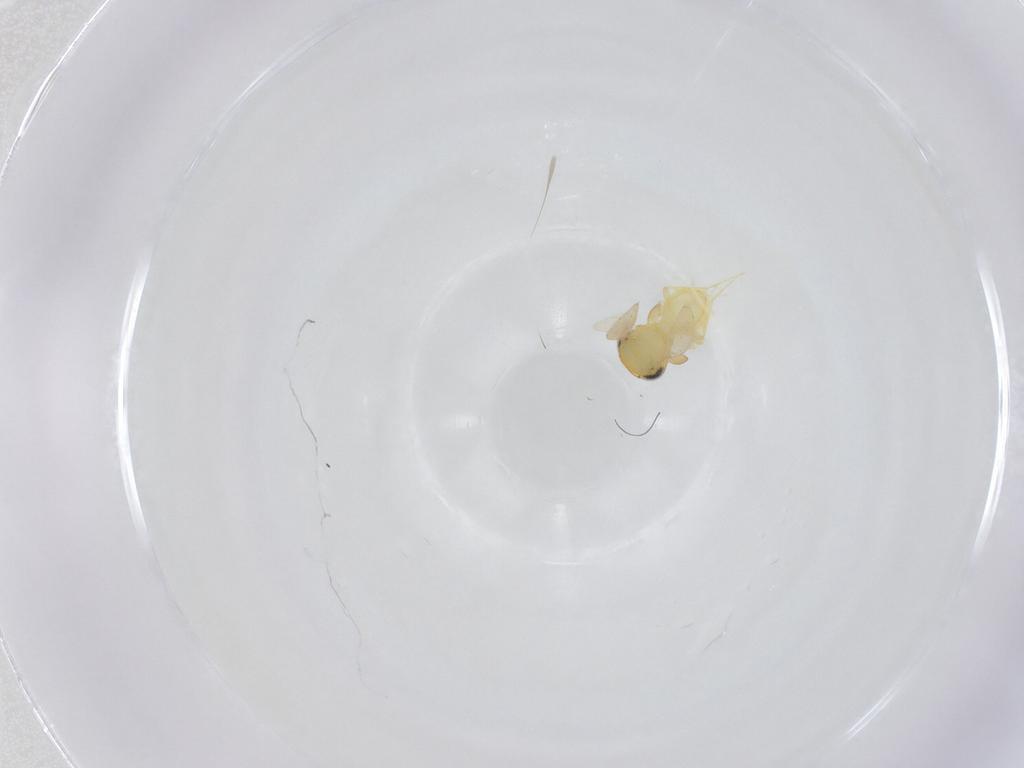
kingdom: Animalia
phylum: Arthropoda
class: Insecta
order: Hymenoptera
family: Scelionidae
